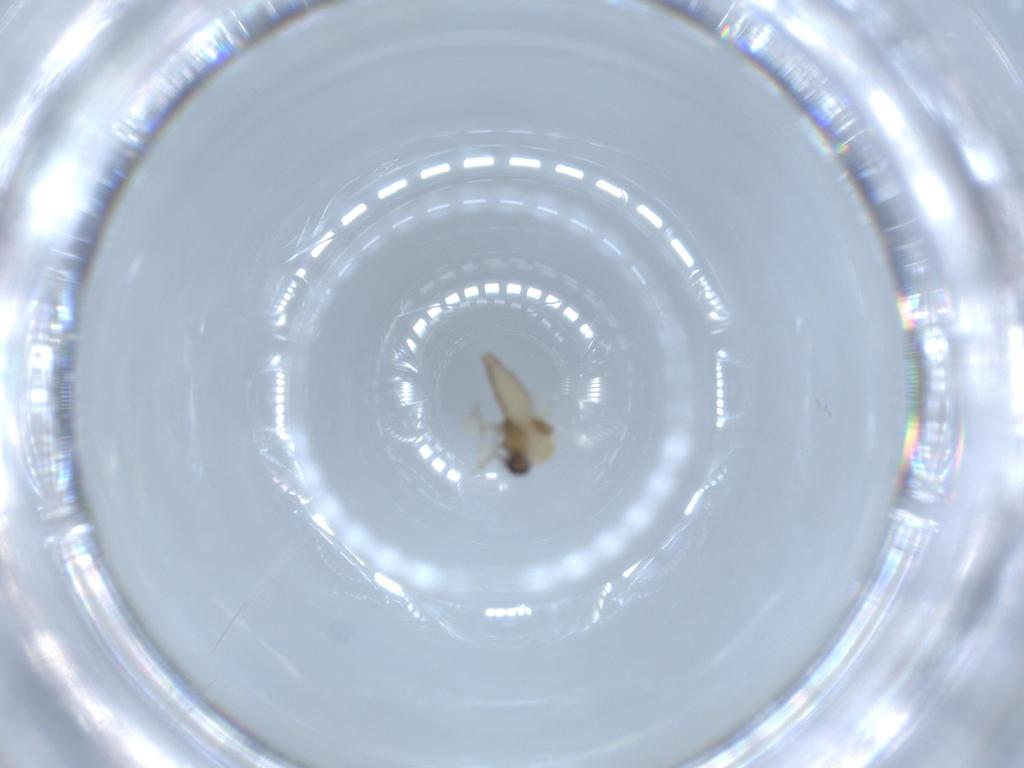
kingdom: Animalia
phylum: Arthropoda
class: Insecta
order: Diptera
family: Ceratopogonidae
